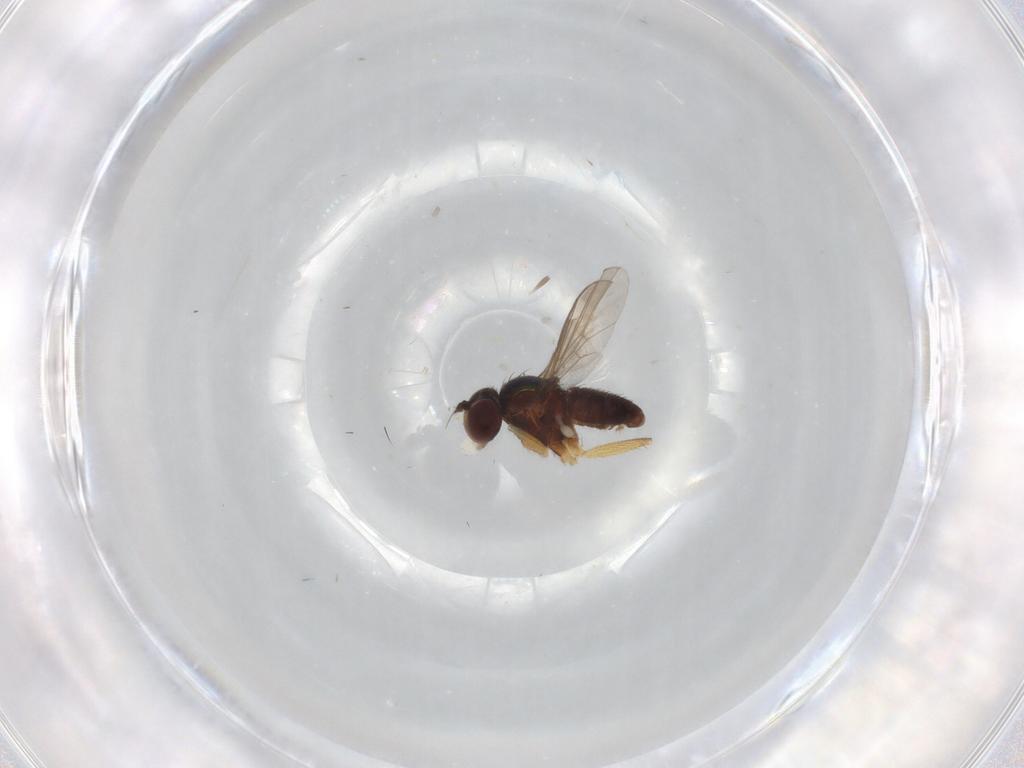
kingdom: Animalia
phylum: Arthropoda
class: Insecta
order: Diptera
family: Dolichopodidae
